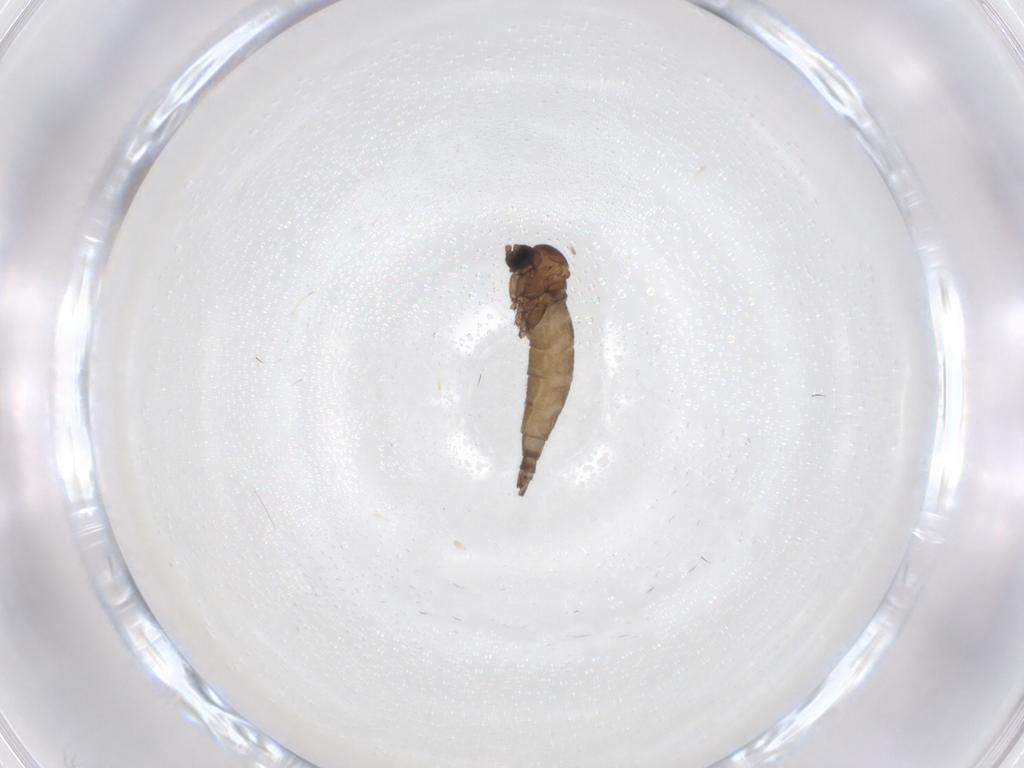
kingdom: Animalia
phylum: Arthropoda
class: Insecta
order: Diptera
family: Sciaridae
